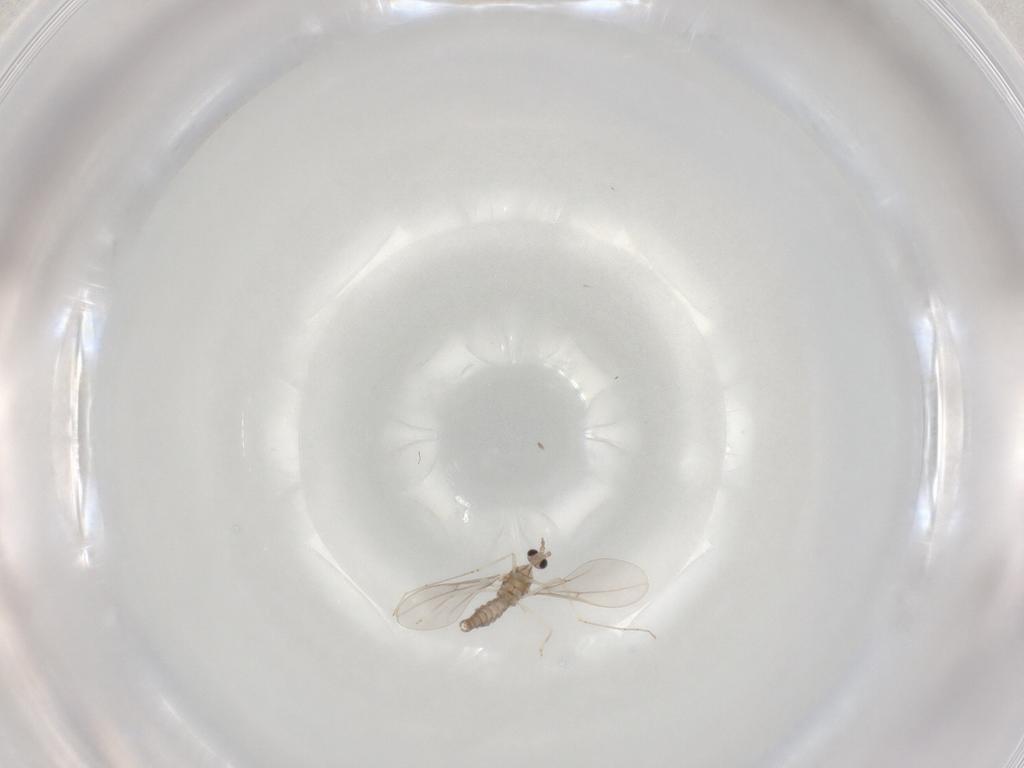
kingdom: Animalia
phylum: Arthropoda
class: Insecta
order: Diptera
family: Cecidomyiidae
